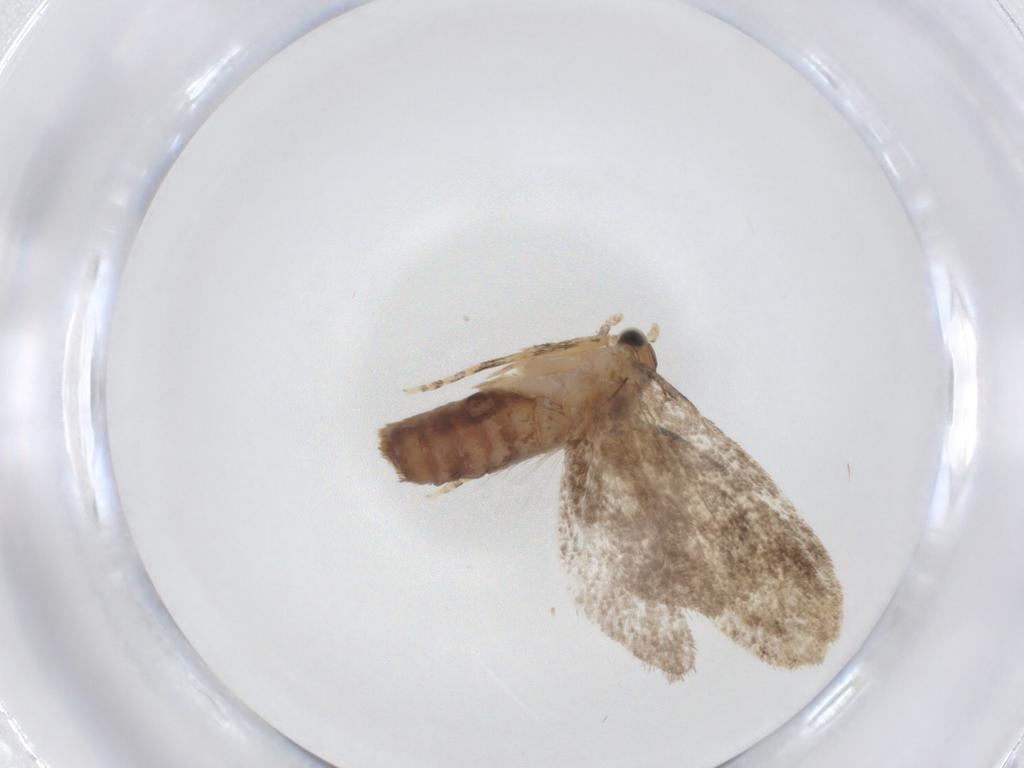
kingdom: Animalia
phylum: Arthropoda
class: Insecta
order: Lepidoptera
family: Tineidae
